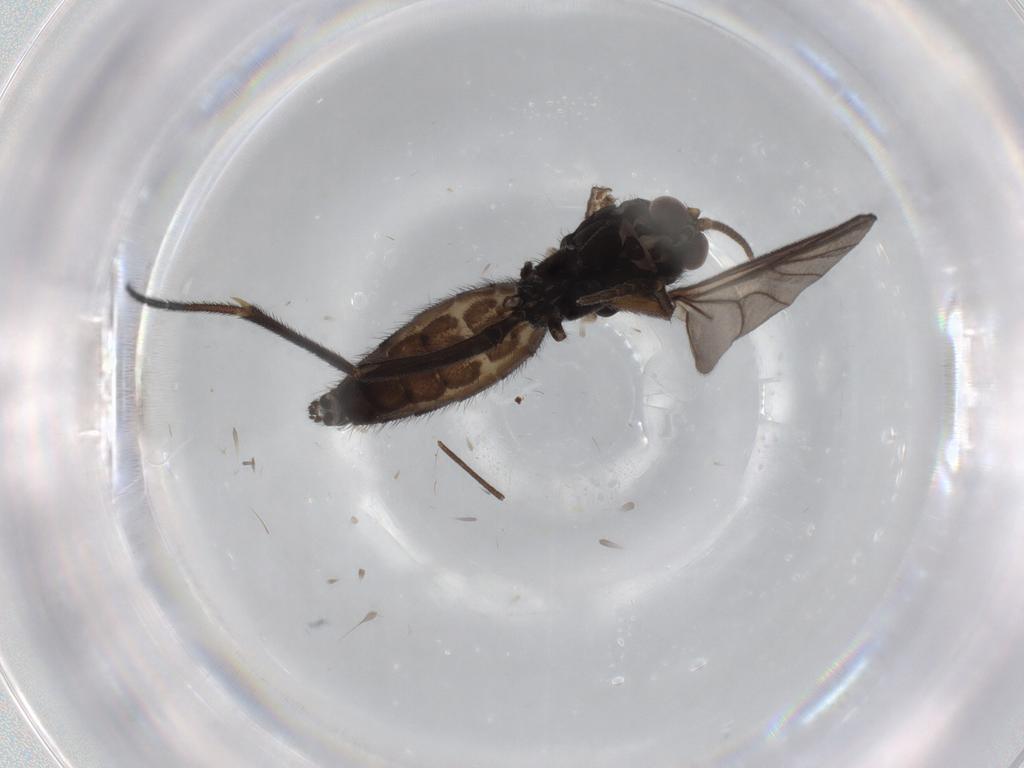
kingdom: Animalia
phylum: Arthropoda
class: Insecta
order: Diptera
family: Mycetophilidae
